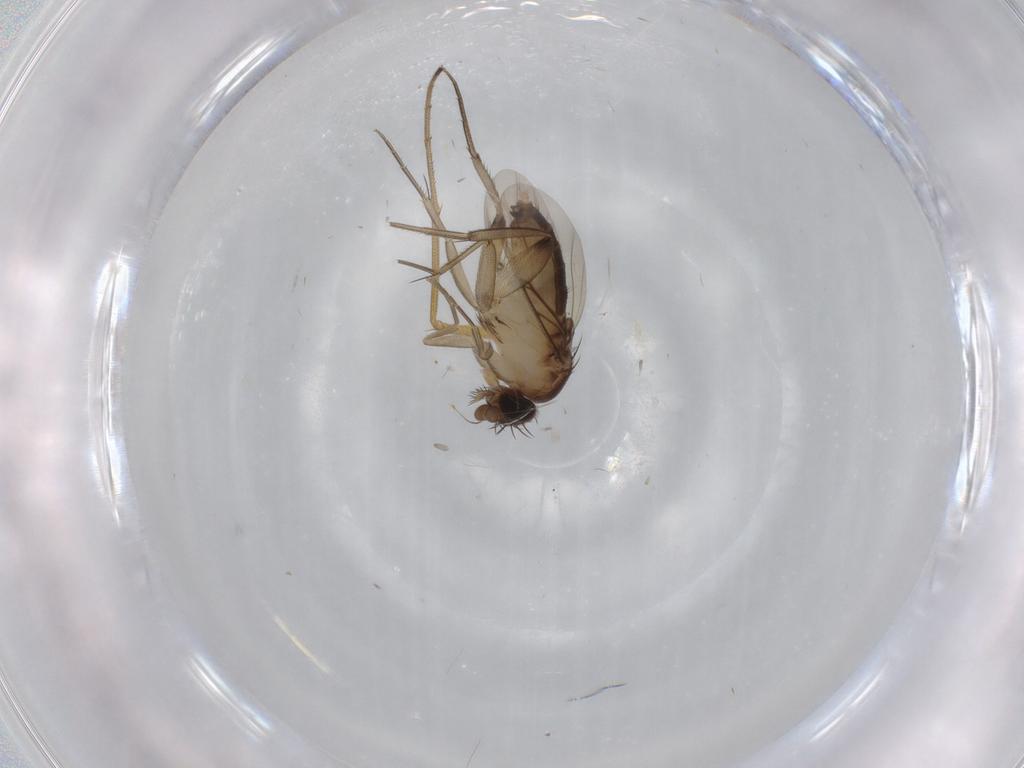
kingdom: Animalia
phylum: Arthropoda
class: Insecta
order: Diptera
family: Phoridae
